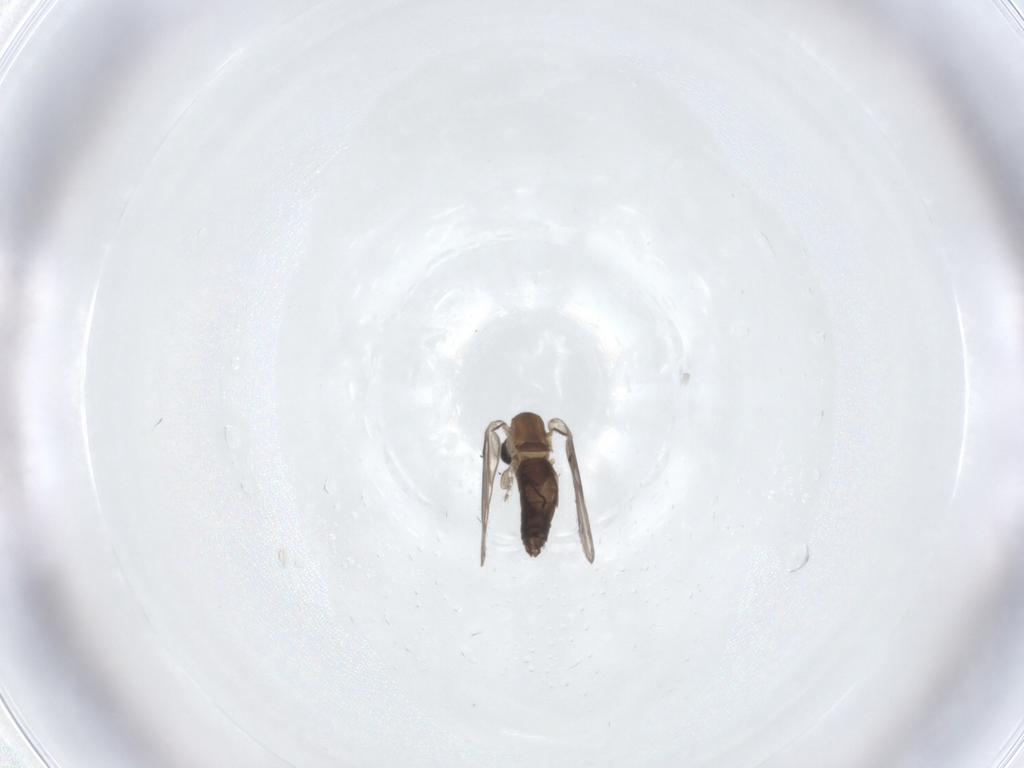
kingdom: Animalia
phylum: Arthropoda
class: Insecta
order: Diptera
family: Psychodidae
